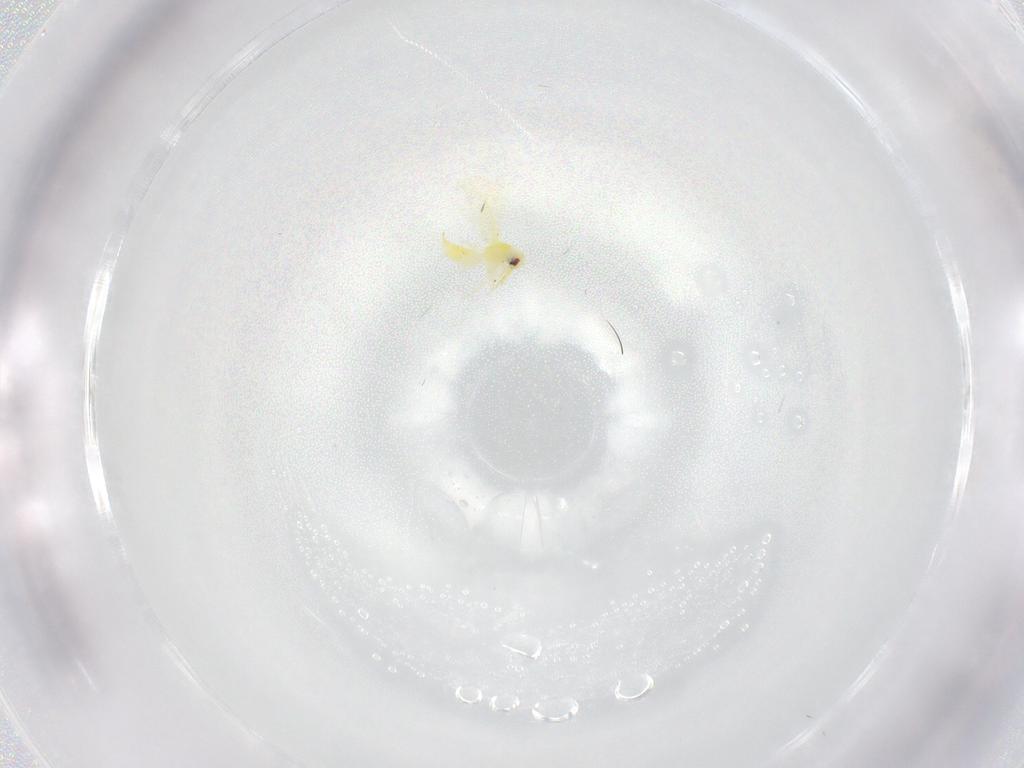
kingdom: Animalia
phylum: Arthropoda
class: Insecta
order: Hemiptera
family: Aleyrodidae
